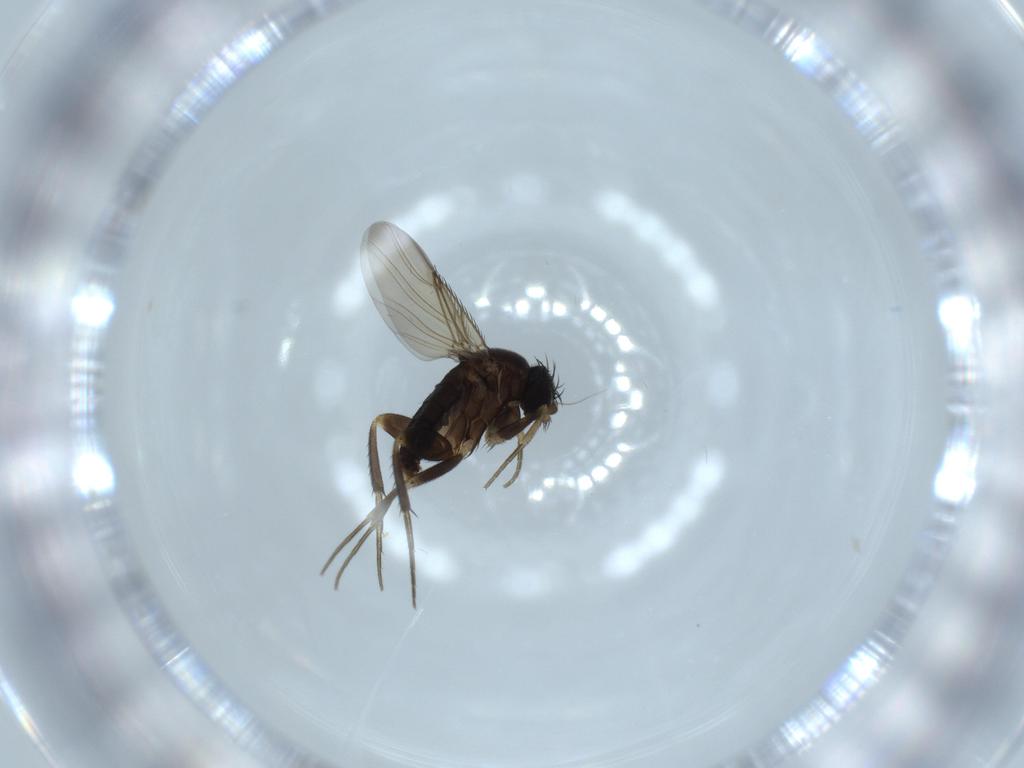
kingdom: Animalia
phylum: Arthropoda
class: Insecta
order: Diptera
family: Phoridae
